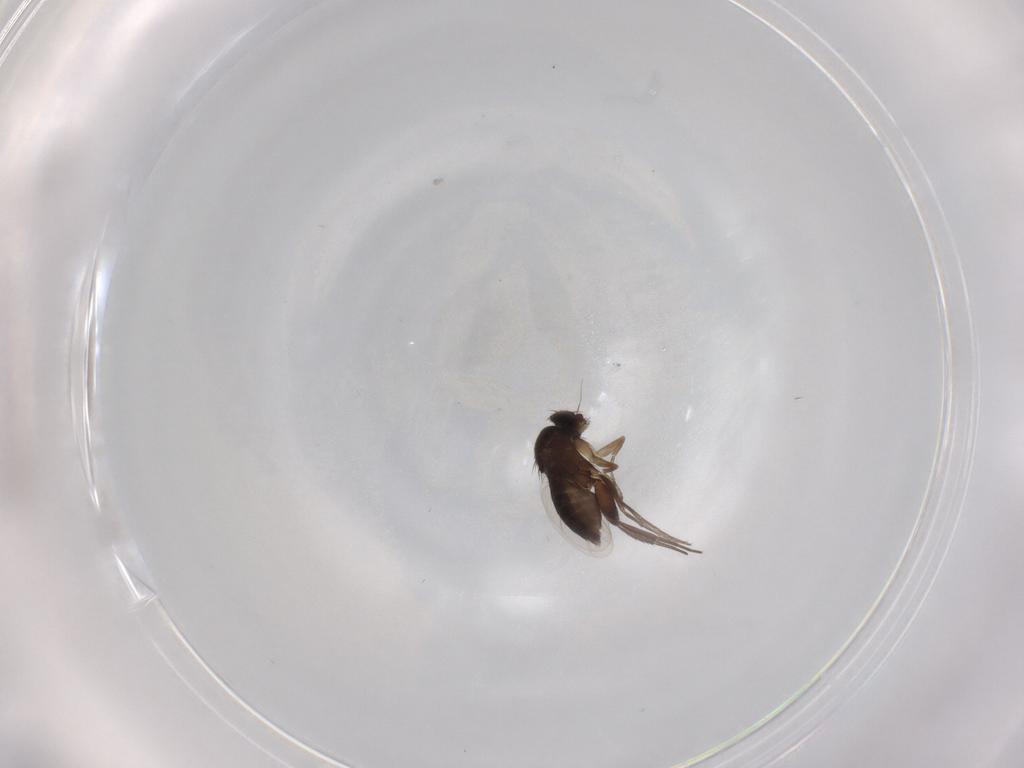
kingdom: Animalia
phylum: Arthropoda
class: Insecta
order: Diptera
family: Phoridae
